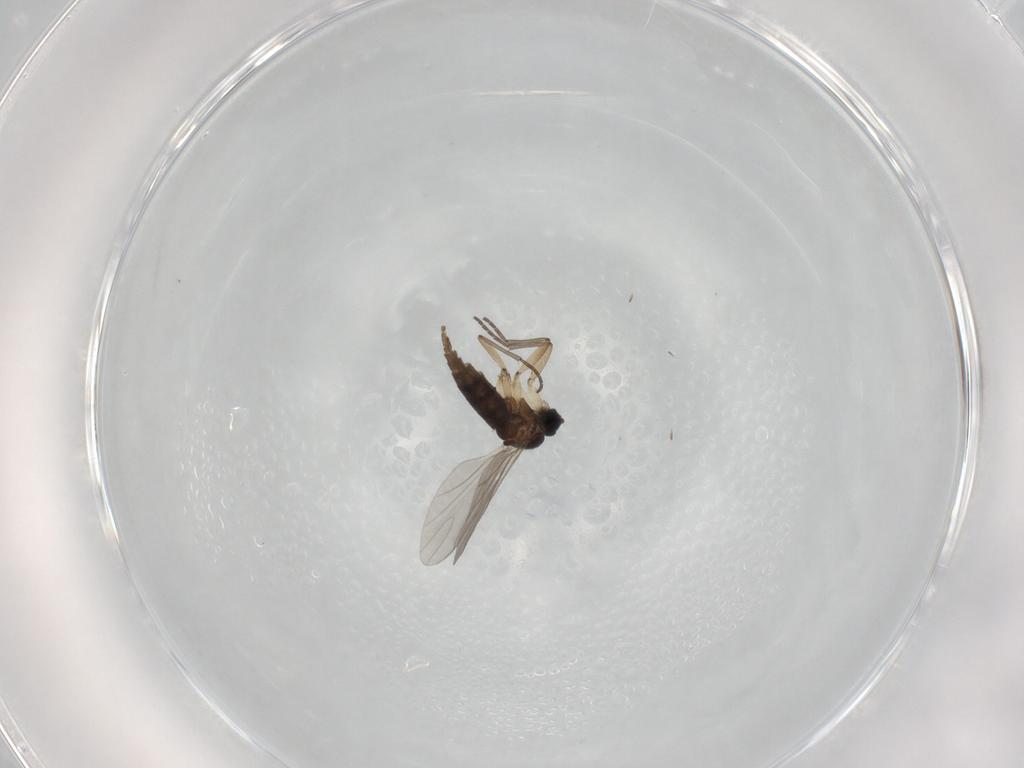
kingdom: Animalia
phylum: Arthropoda
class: Insecta
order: Diptera
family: Sciaridae
